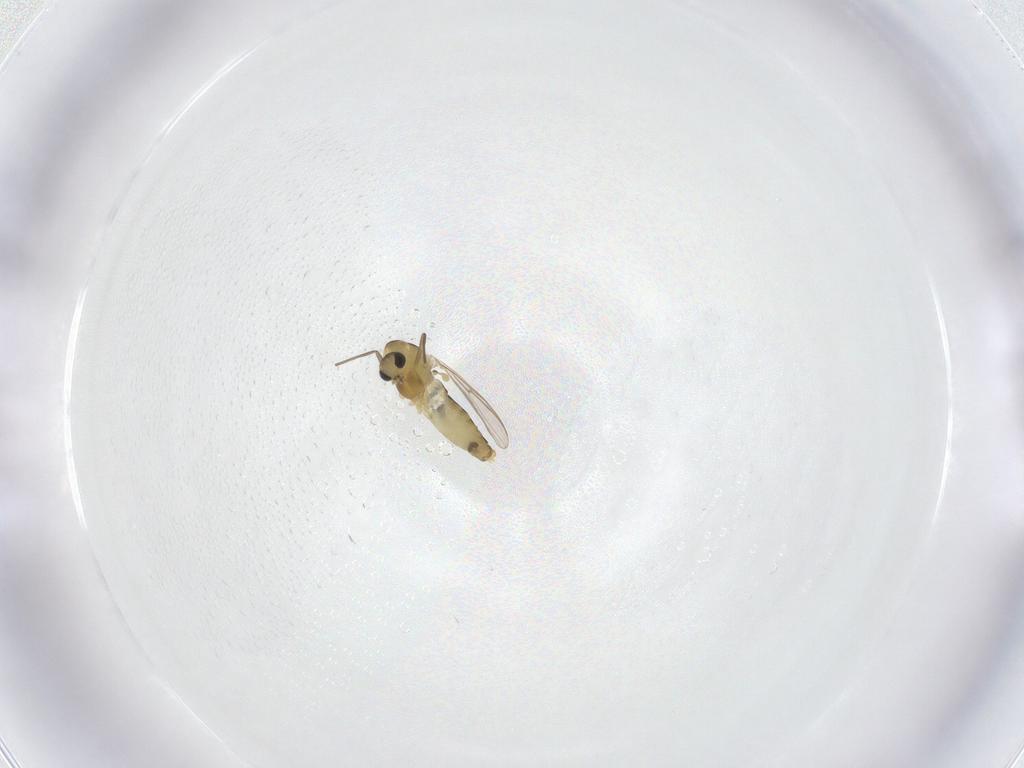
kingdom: Animalia
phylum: Arthropoda
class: Insecta
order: Diptera
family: Chironomidae
